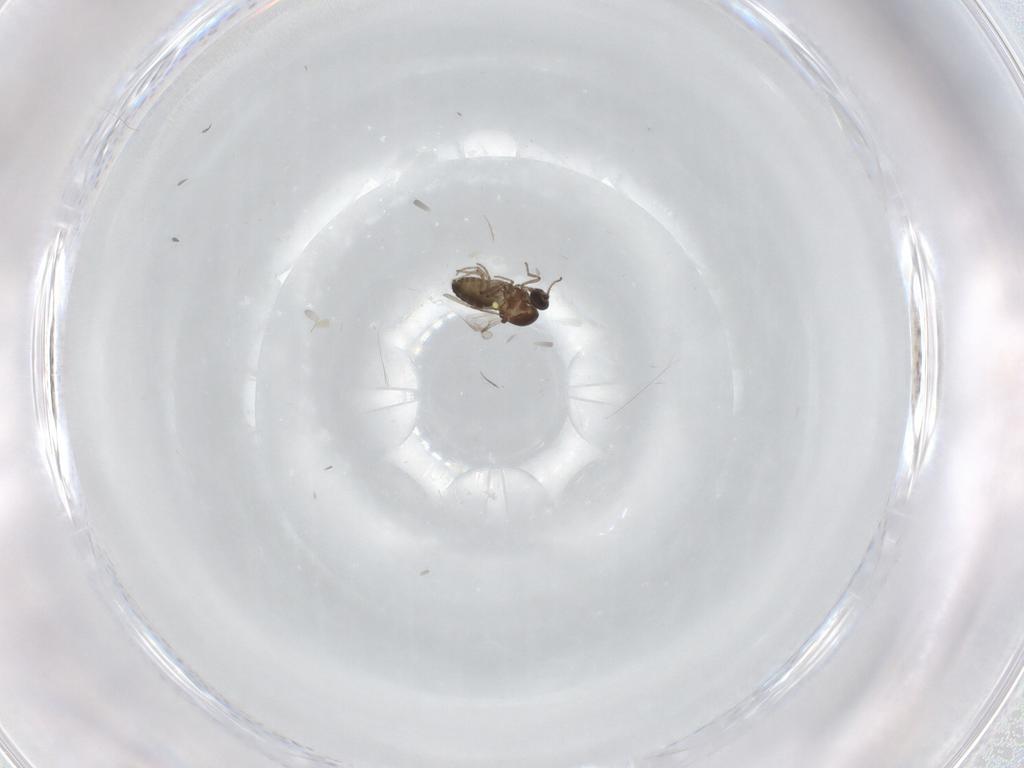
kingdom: Animalia
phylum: Arthropoda
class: Insecta
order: Diptera
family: Ceratopogonidae
